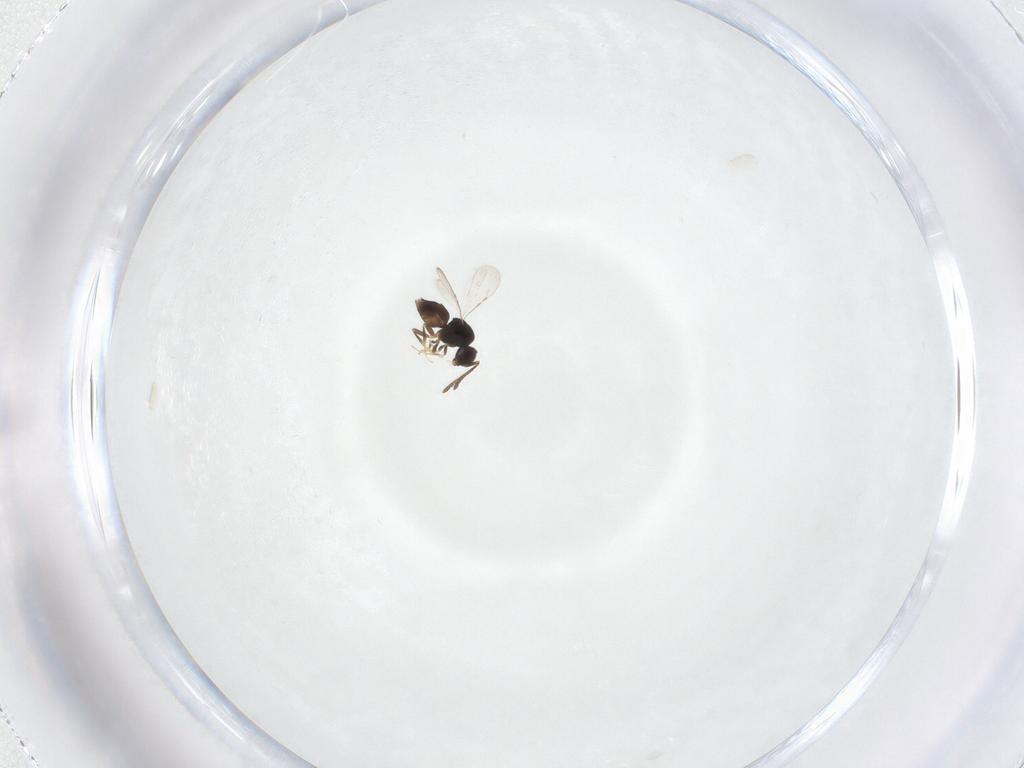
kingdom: Animalia
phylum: Arthropoda
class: Insecta
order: Hymenoptera
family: Ceraphronidae
